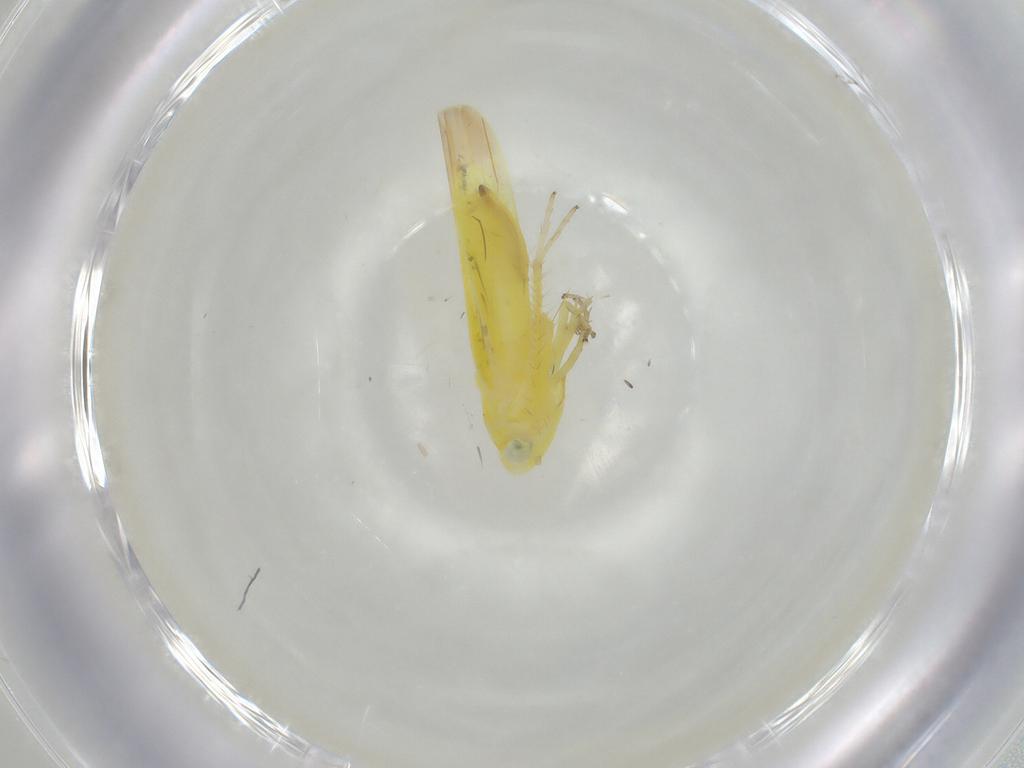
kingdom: Animalia
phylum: Arthropoda
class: Insecta
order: Hemiptera
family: Cicadellidae
